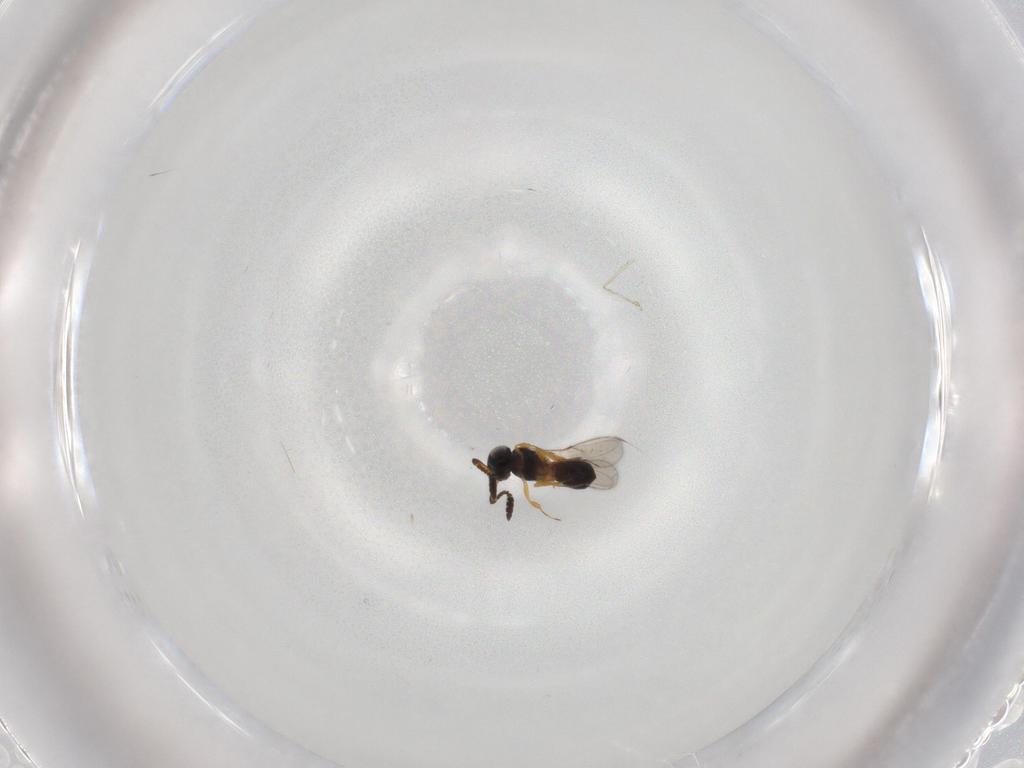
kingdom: Animalia
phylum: Arthropoda
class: Insecta
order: Hymenoptera
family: Scelionidae
